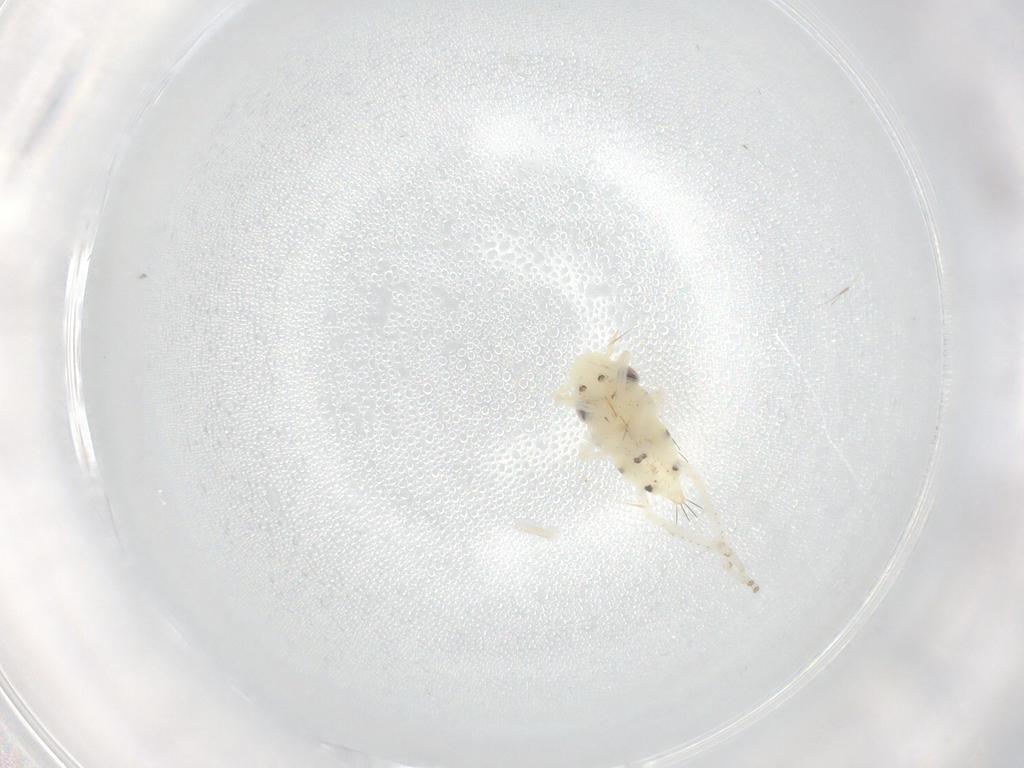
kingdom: Animalia
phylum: Arthropoda
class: Insecta
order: Hemiptera
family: Cicadellidae
